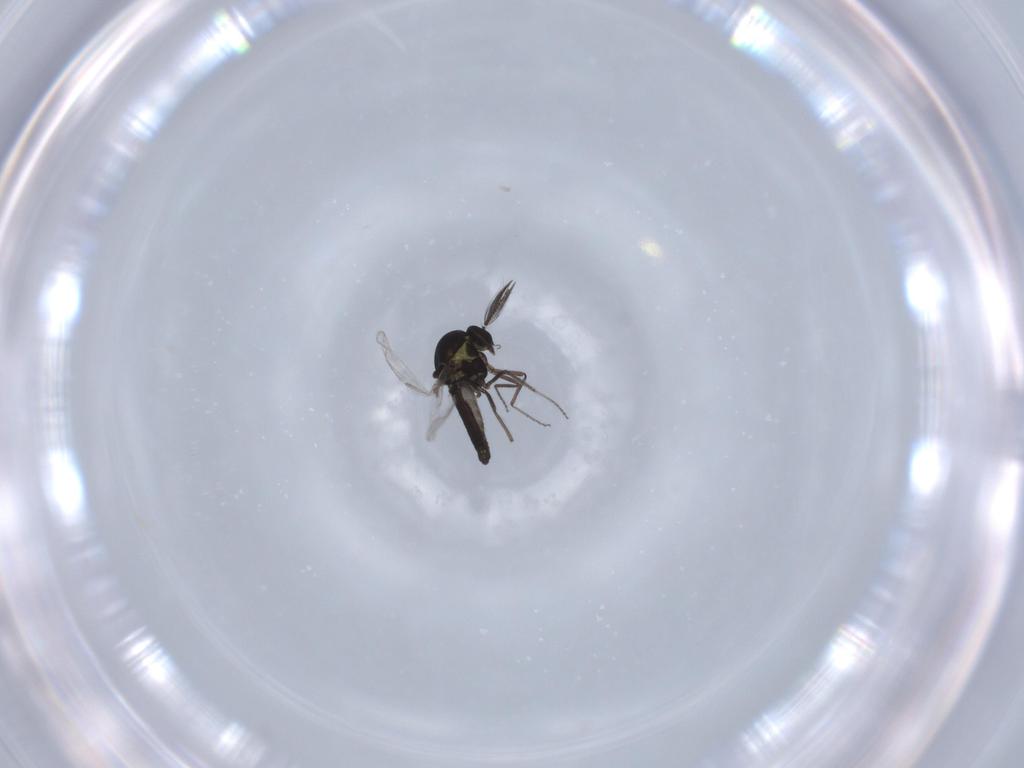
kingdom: Animalia
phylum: Arthropoda
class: Insecta
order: Diptera
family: Ceratopogonidae
